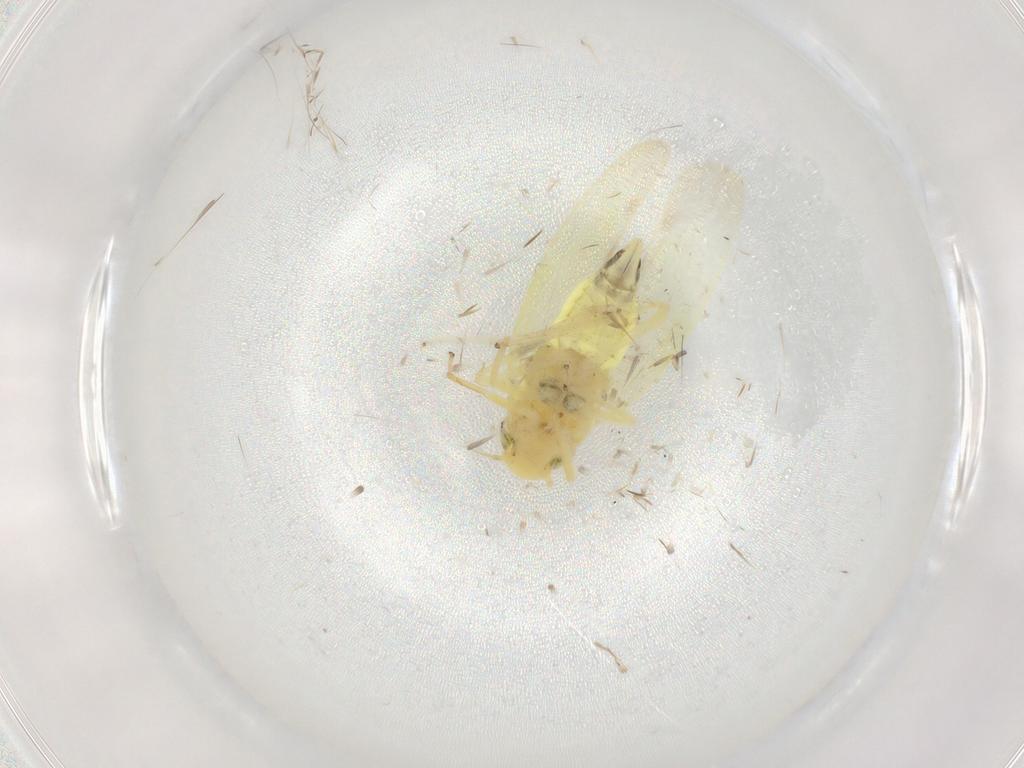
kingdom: Animalia
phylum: Arthropoda
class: Insecta
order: Hemiptera
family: Cicadellidae
